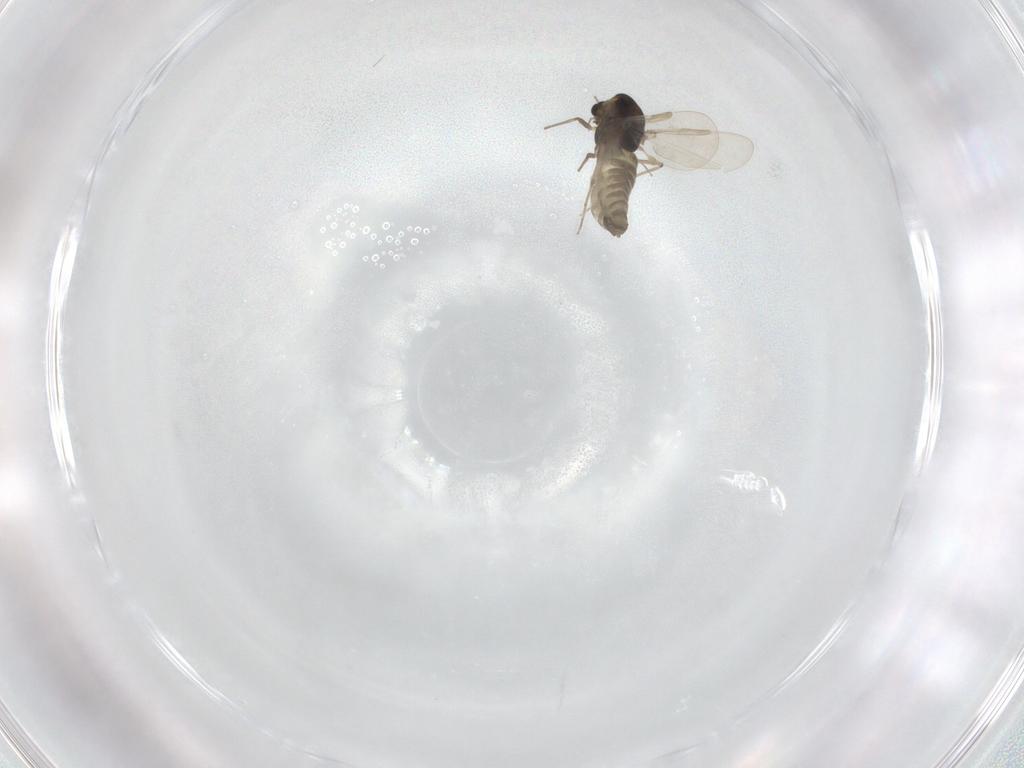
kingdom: Animalia
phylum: Arthropoda
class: Insecta
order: Diptera
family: Chironomidae
